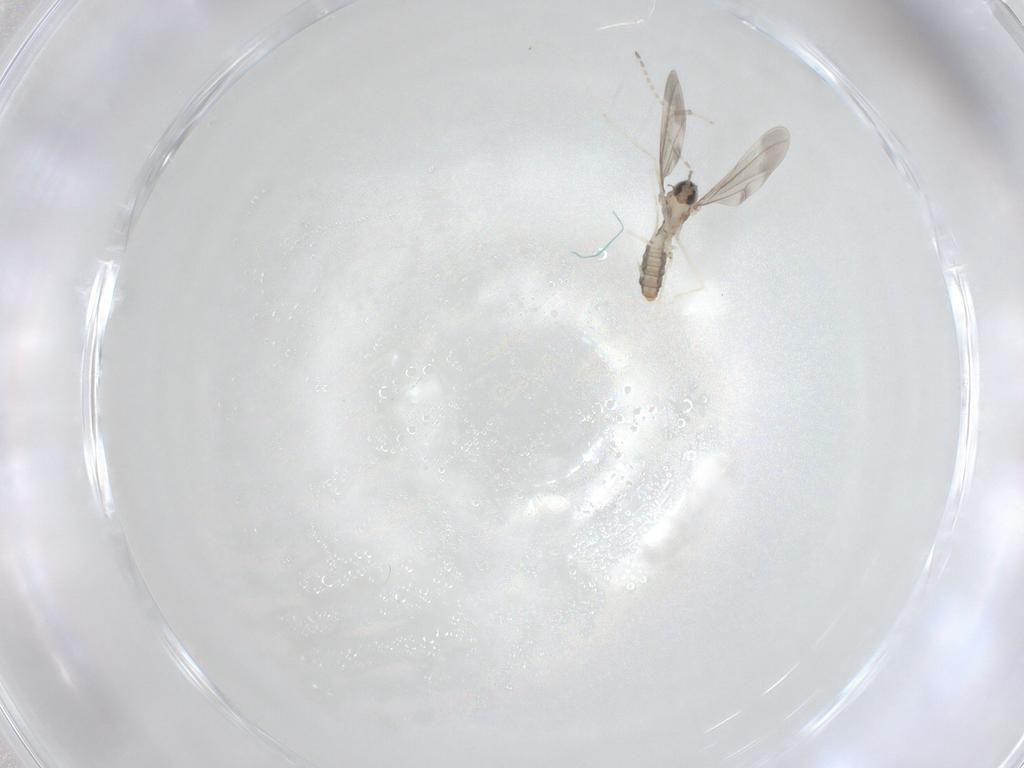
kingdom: Animalia
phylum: Arthropoda
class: Insecta
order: Diptera
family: Cecidomyiidae
